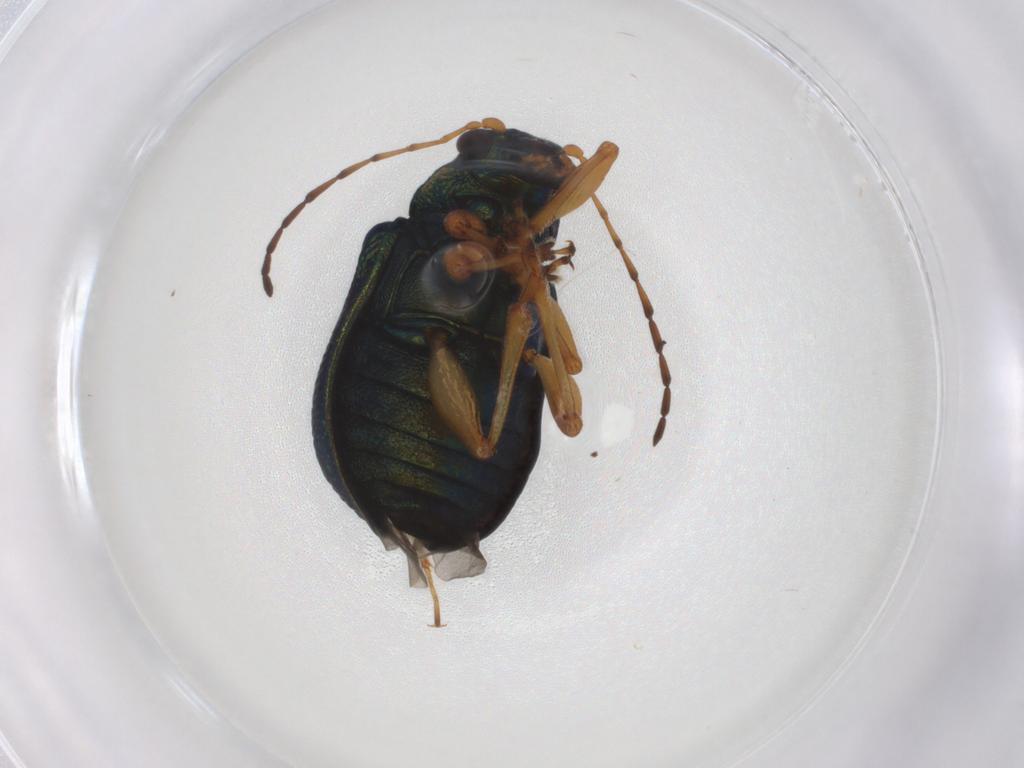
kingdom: Animalia
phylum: Arthropoda
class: Insecta
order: Coleoptera
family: Chrysomelidae
